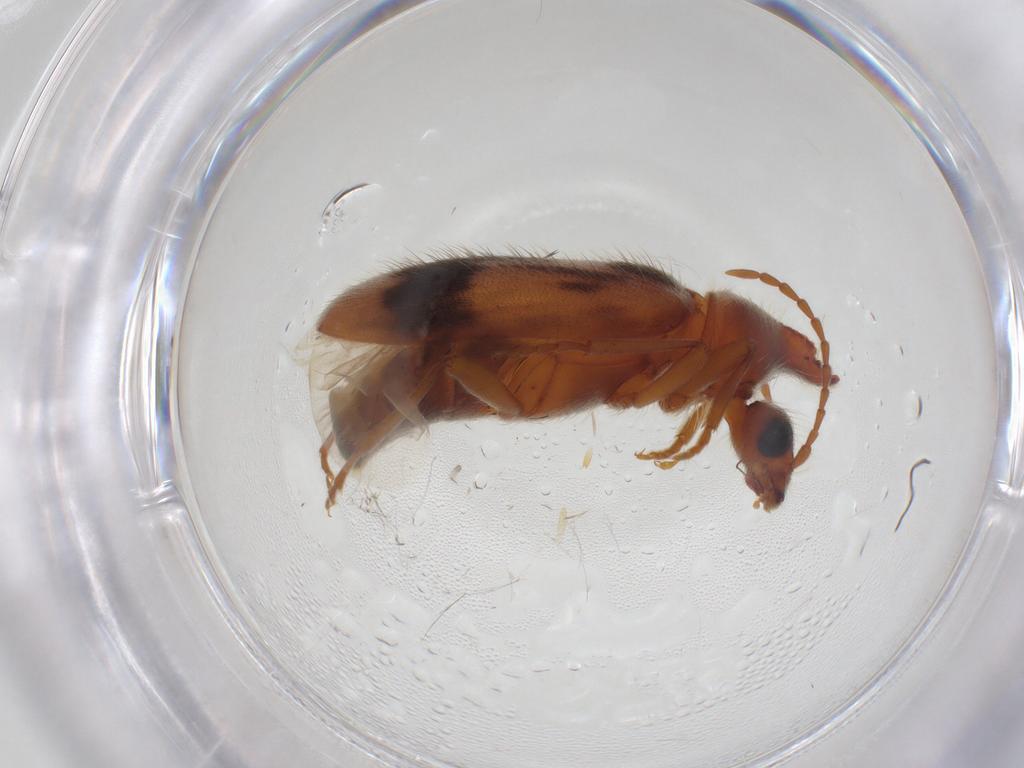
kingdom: Animalia
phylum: Arthropoda
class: Insecta
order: Coleoptera
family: Anthicidae
